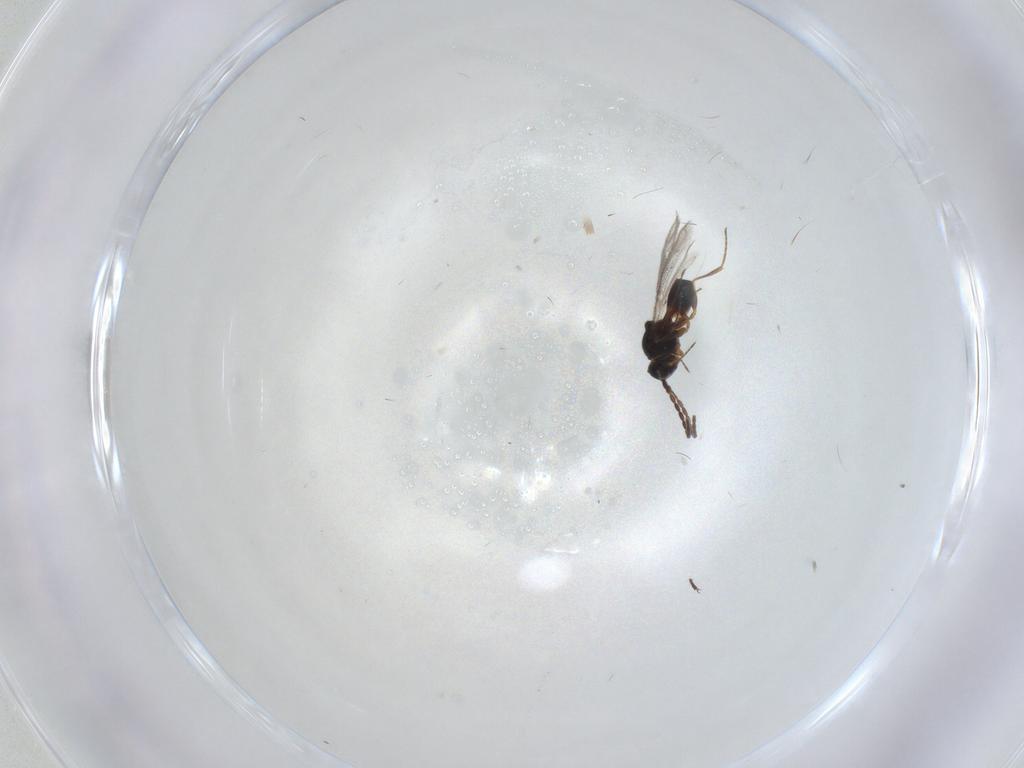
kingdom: Animalia
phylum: Arthropoda
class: Insecta
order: Hymenoptera
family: Figitidae
